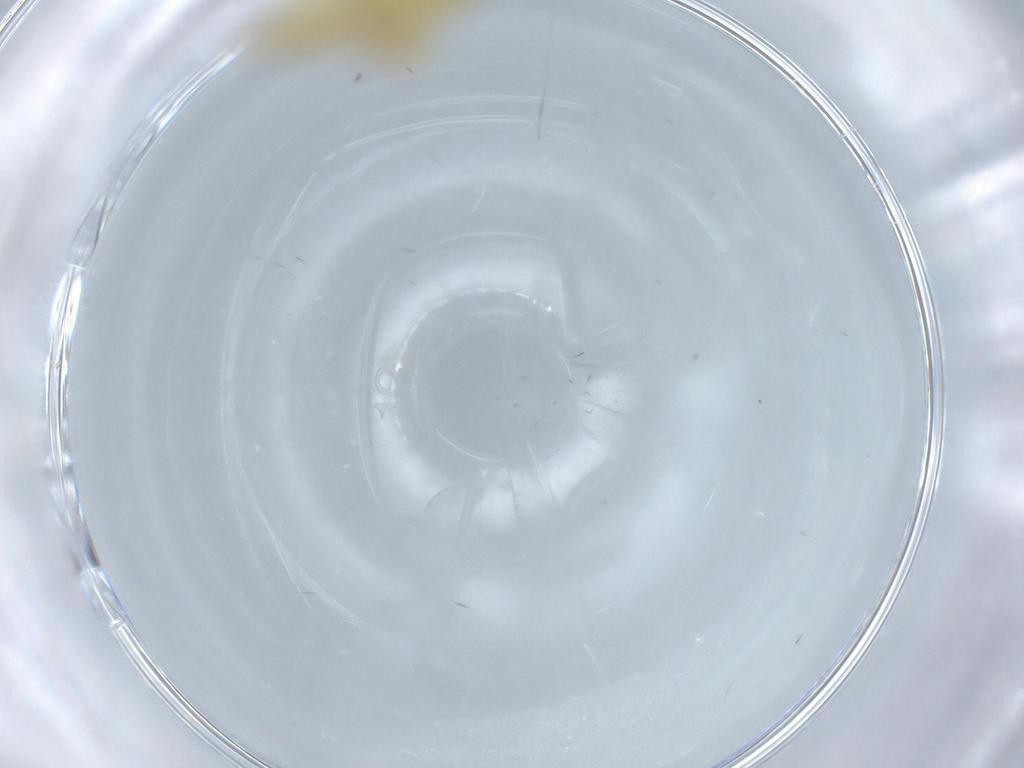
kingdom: Animalia
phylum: Arthropoda
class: Insecta
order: Hemiptera
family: Cicadellidae
